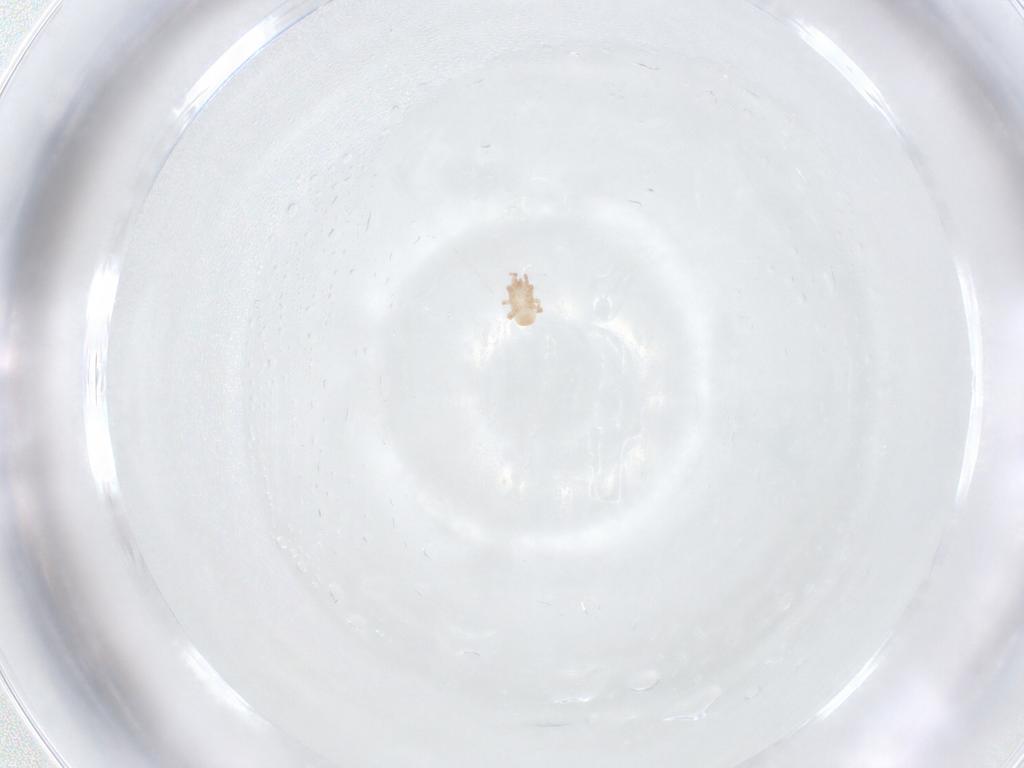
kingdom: Animalia
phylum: Arthropoda
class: Arachnida
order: Mesostigmata
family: Digamasellidae
